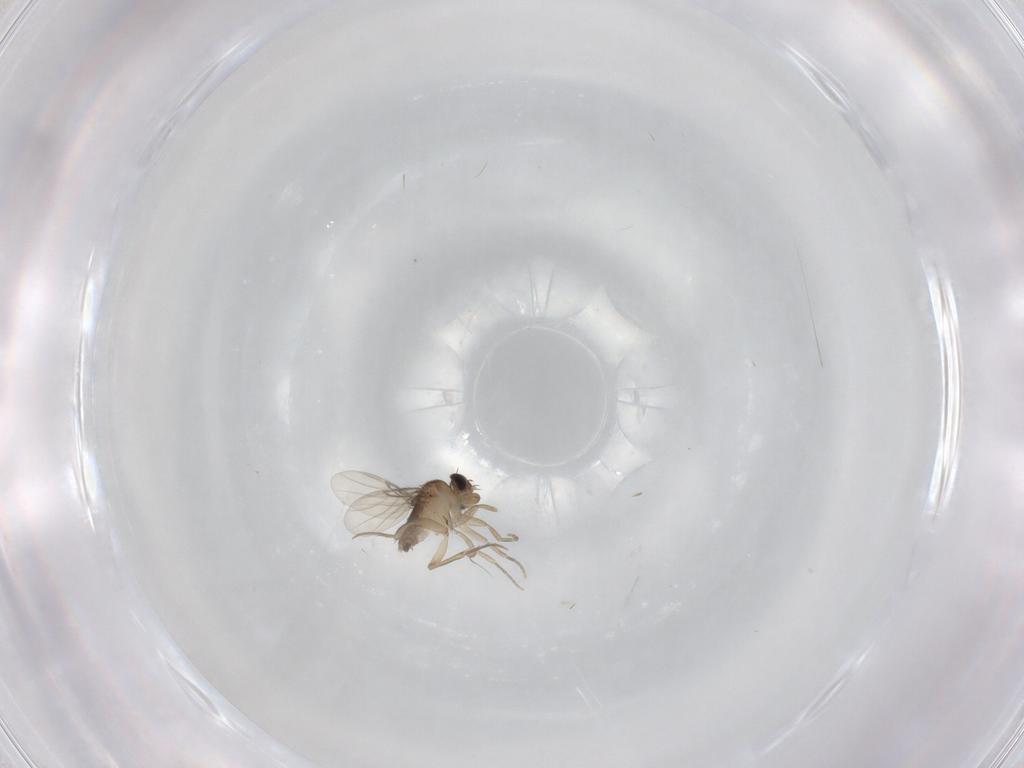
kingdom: Animalia
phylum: Arthropoda
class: Insecta
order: Diptera
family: Phoridae
